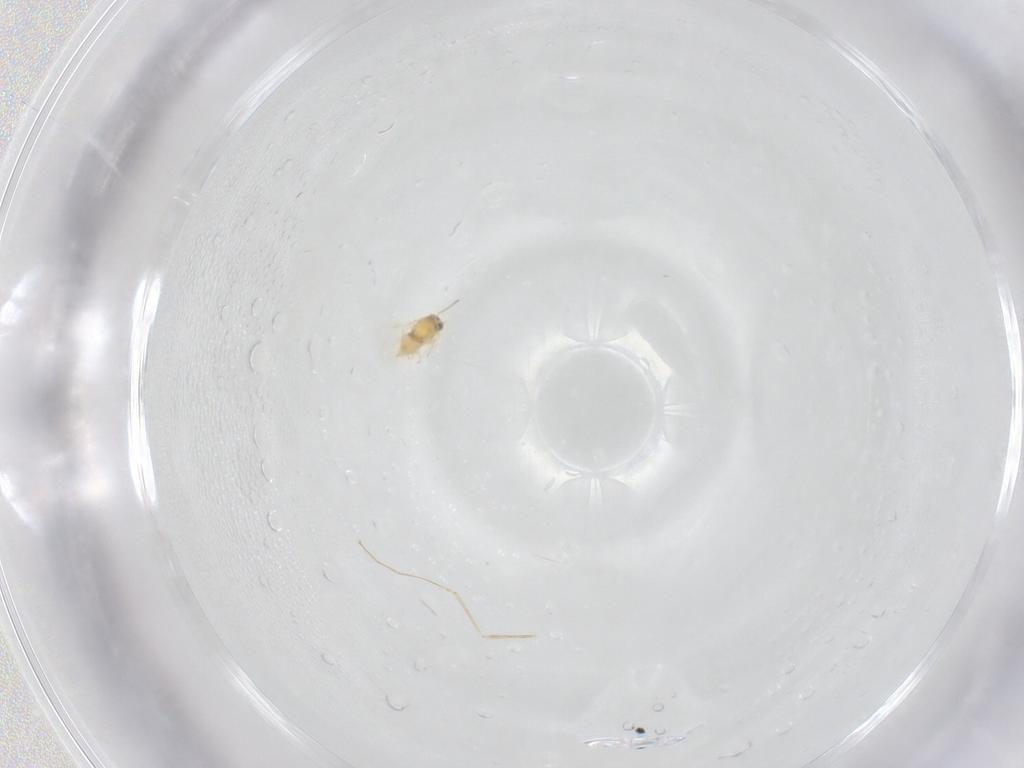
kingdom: Animalia
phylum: Arthropoda
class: Insecta
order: Hymenoptera
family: Aphelinidae
